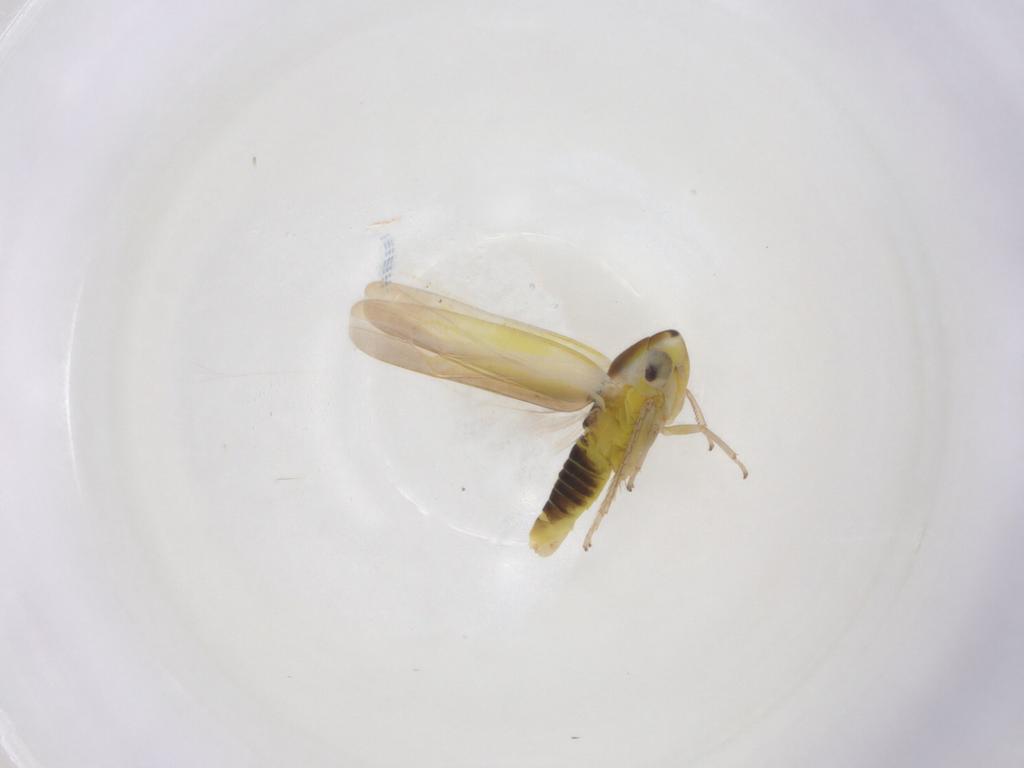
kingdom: Animalia
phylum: Arthropoda
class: Insecta
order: Hemiptera
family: Cicadellidae
